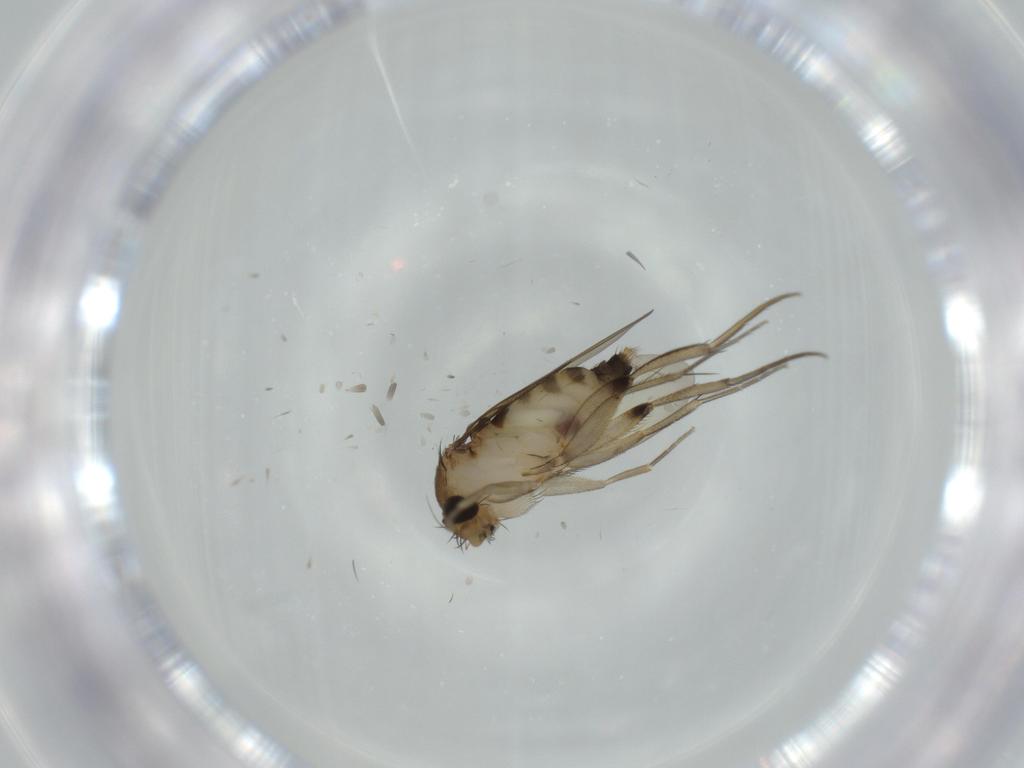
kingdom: Animalia
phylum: Arthropoda
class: Insecta
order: Diptera
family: Phoridae
